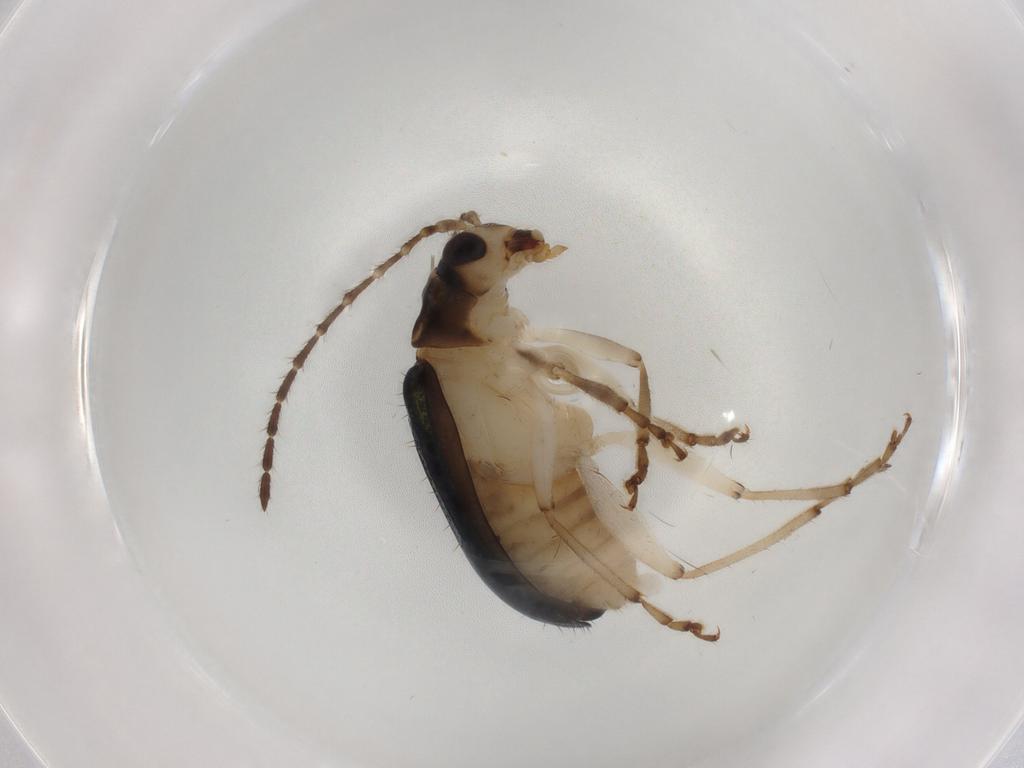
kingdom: Animalia
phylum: Arthropoda
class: Insecta
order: Coleoptera
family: Chrysomelidae
